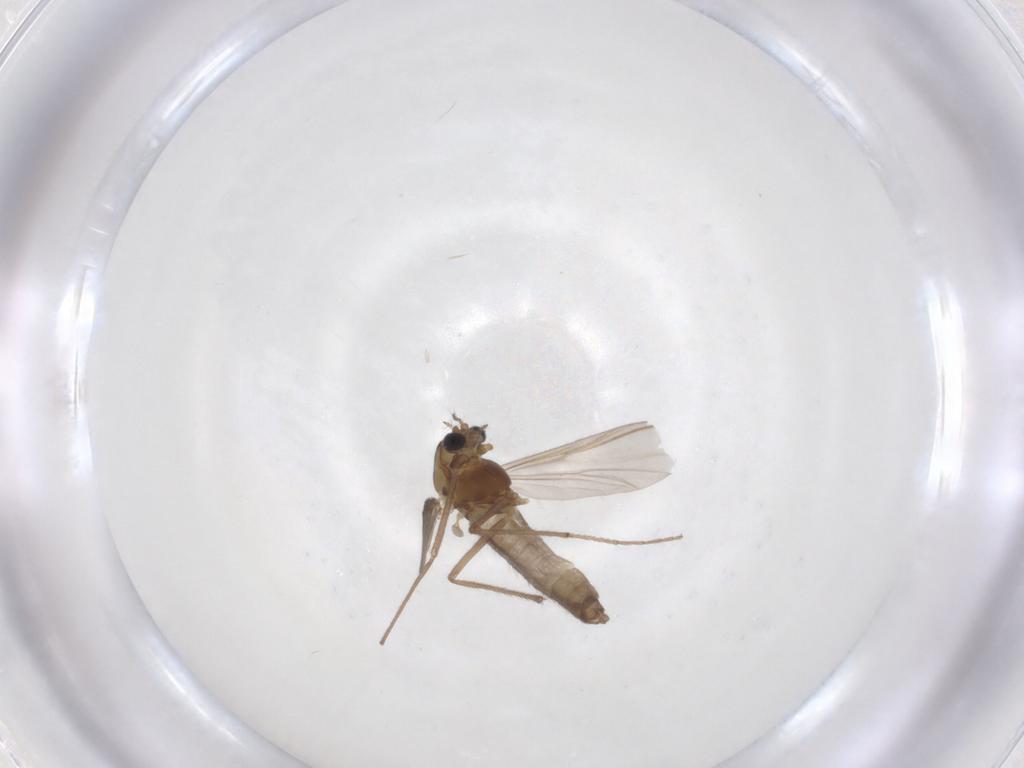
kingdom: Animalia
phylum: Arthropoda
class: Insecta
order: Diptera
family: Chironomidae
